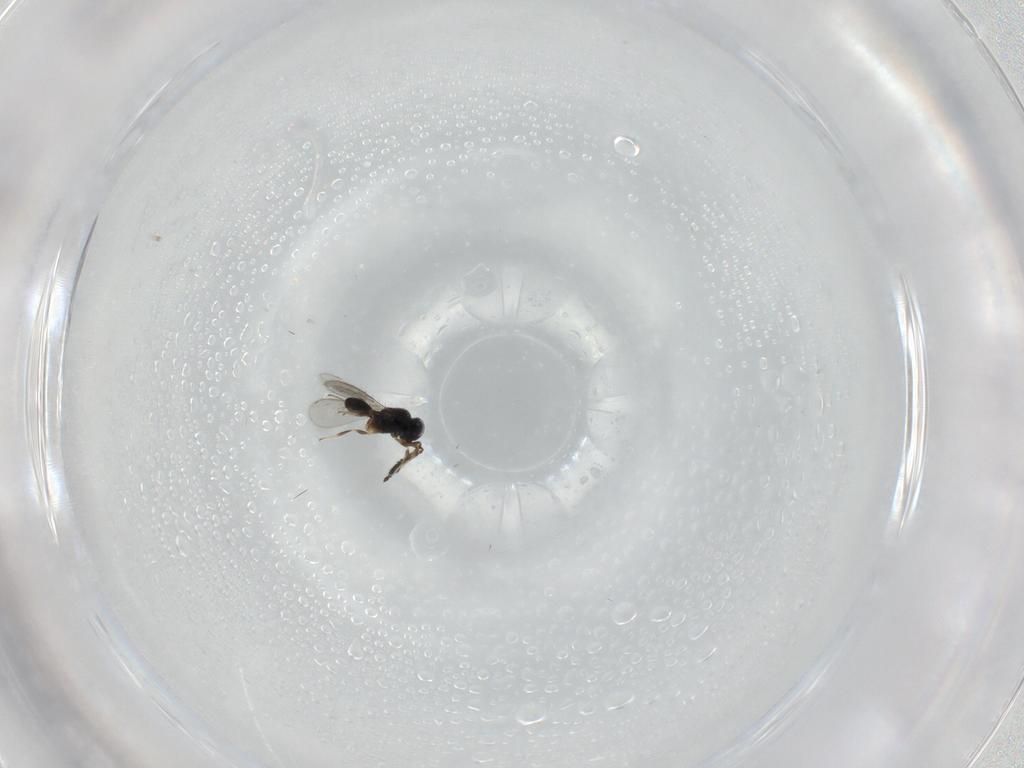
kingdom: Animalia
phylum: Arthropoda
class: Insecta
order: Hymenoptera
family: Scelionidae
